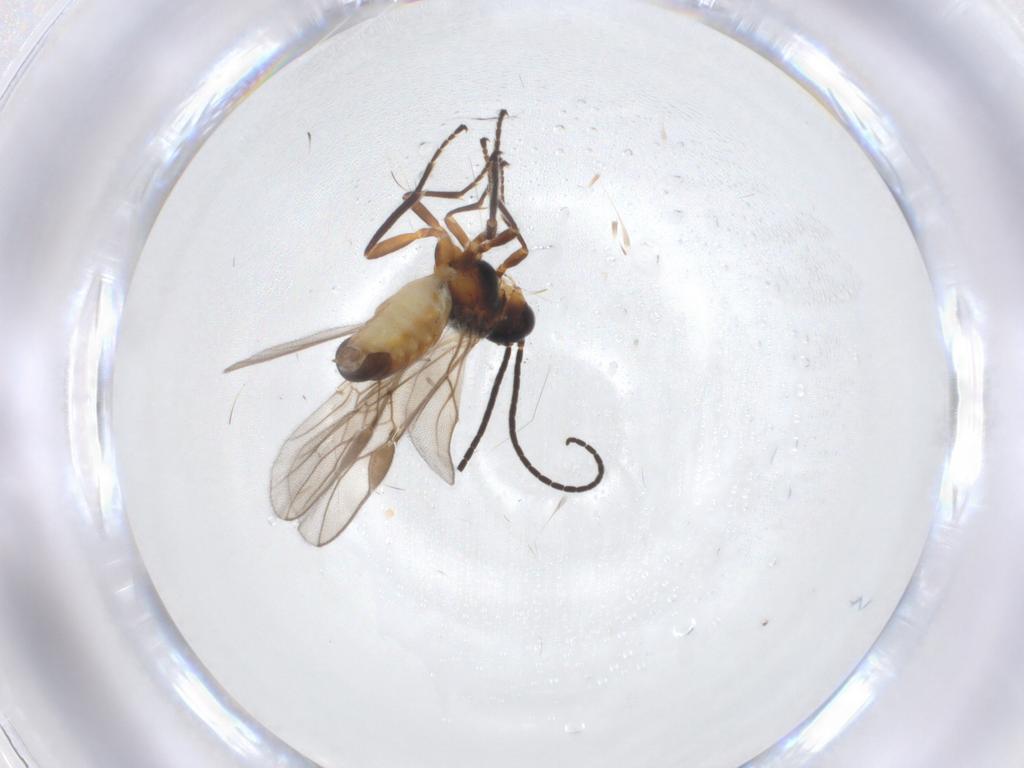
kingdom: Animalia
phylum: Arthropoda
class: Insecta
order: Hymenoptera
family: Braconidae
